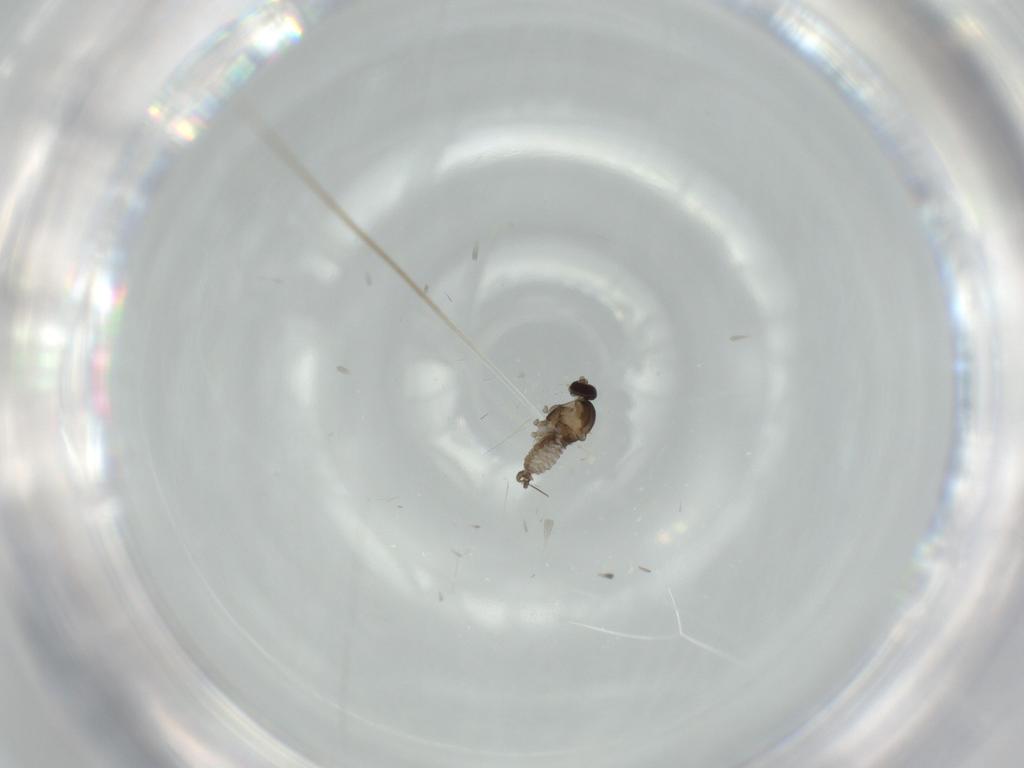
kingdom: Animalia
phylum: Arthropoda
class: Insecta
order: Diptera
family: Cecidomyiidae
